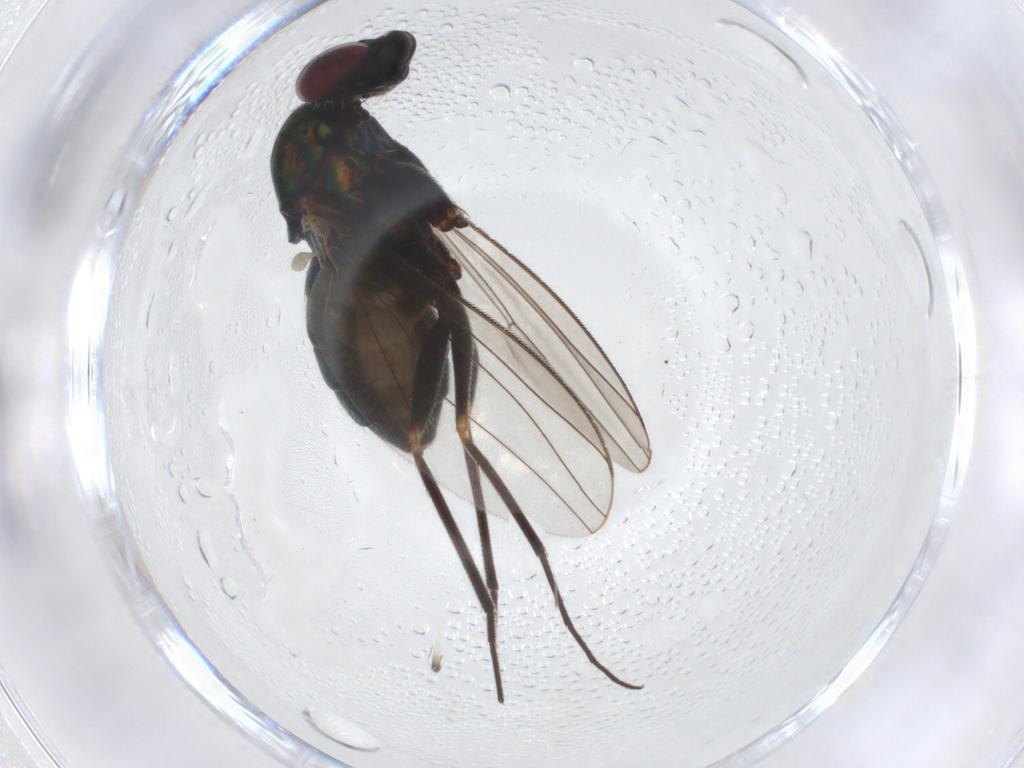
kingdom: Animalia
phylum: Arthropoda
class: Insecta
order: Diptera
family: Dolichopodidae
